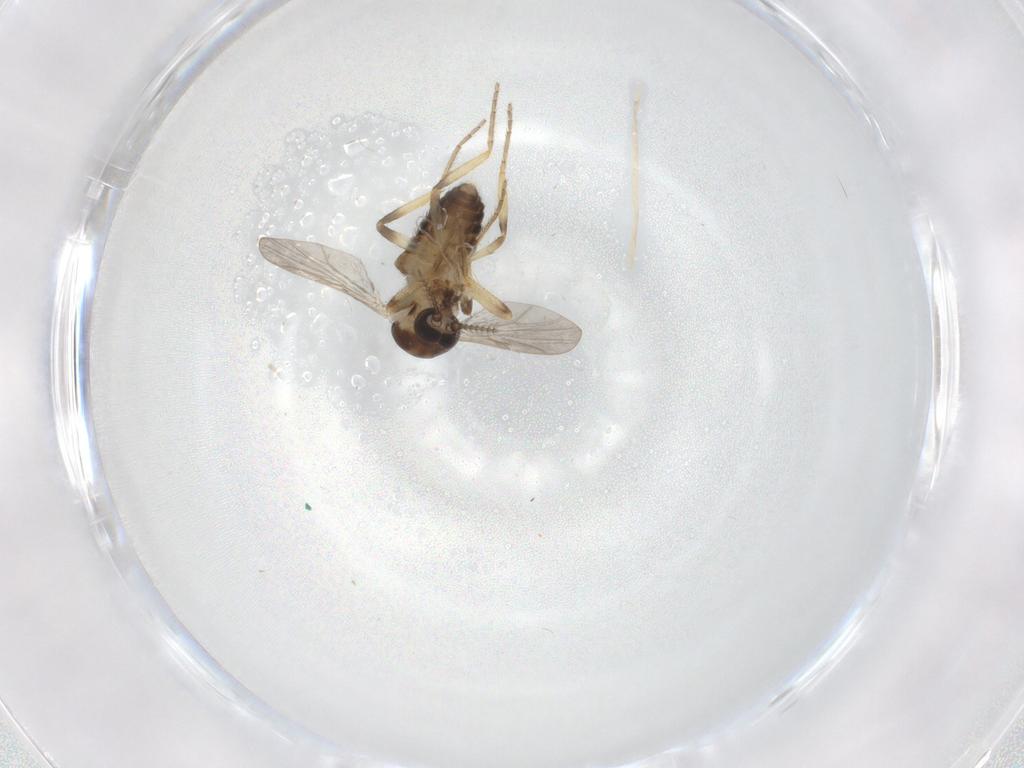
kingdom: Animalia
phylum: Arthropoda
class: Insecta
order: Diptera
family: Ceratopogonidae
